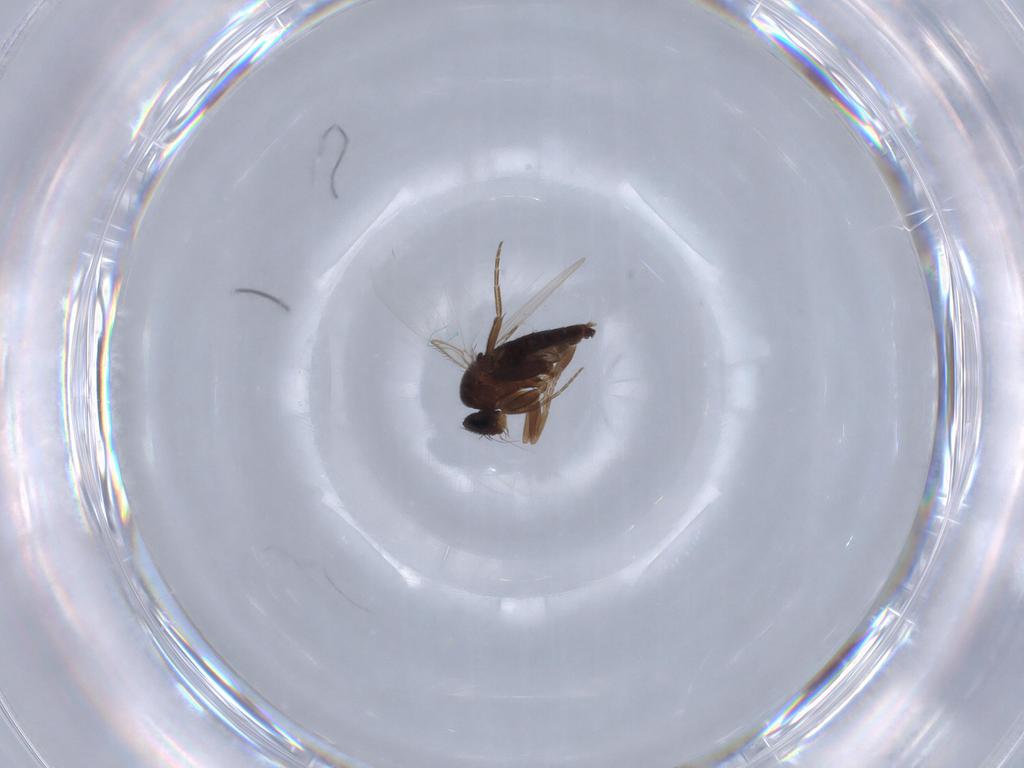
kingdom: Animalia
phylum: Arthropoda
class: Insecta
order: Diptera
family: Phoridae
